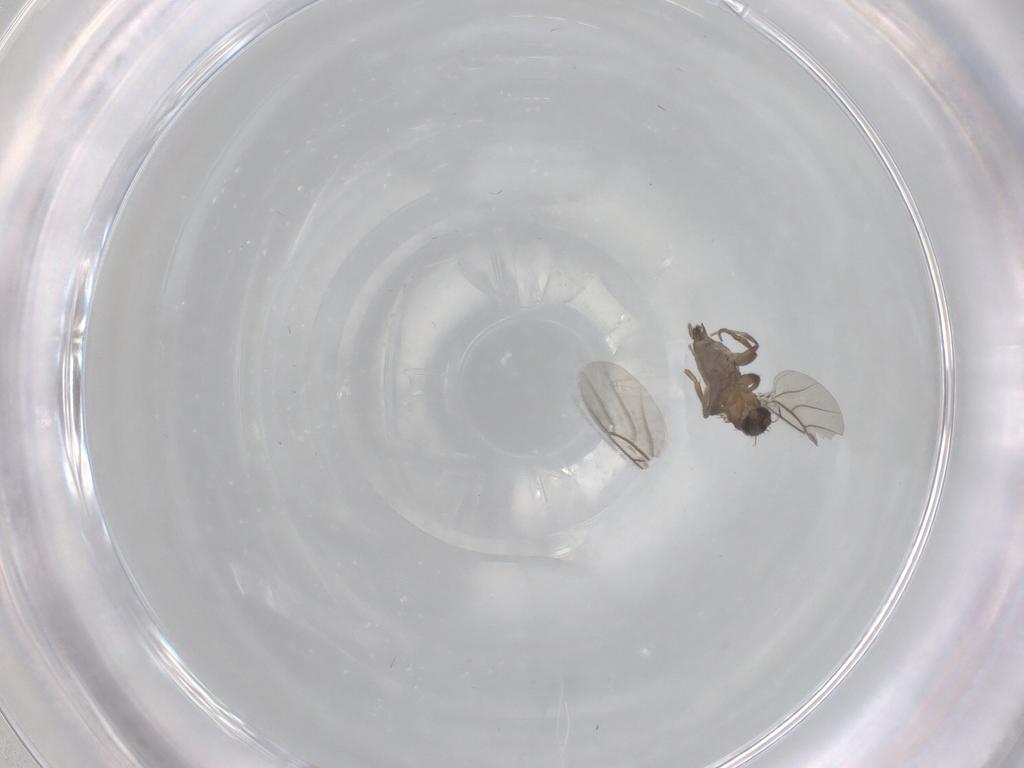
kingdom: Animalia
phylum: Arthropoda
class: Insecta
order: Diptera
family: Phoridae
